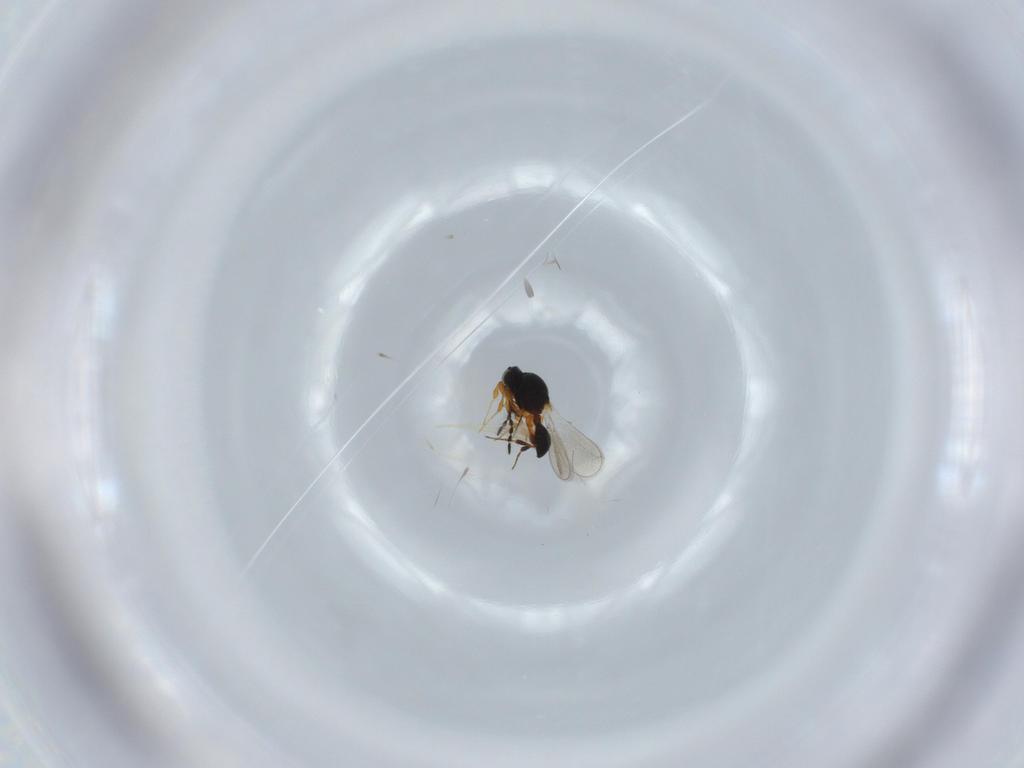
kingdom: Animalia
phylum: Arthropoda
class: Insecta
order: Hymenoptera
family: Platygastridae
